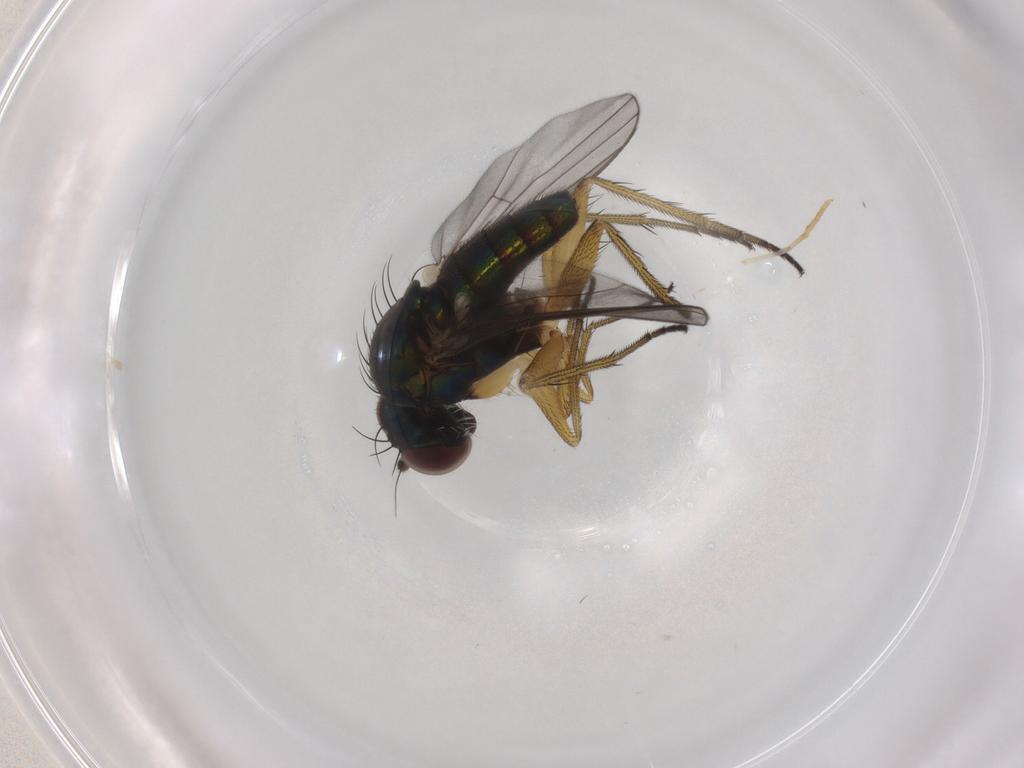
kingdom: Animalia
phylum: Arthropoda
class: Insecta
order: Diptera
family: Dolichopodidae
